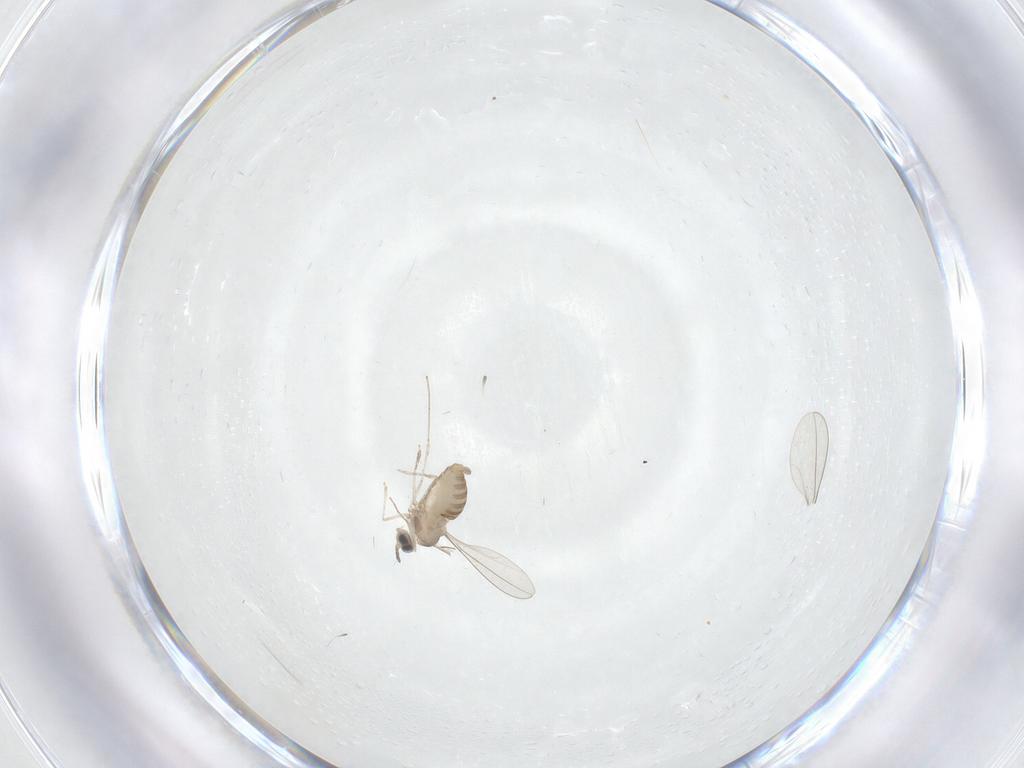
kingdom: Animalia
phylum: Arthropoda
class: Insecta
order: Diptera
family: Cecidomyiidae
